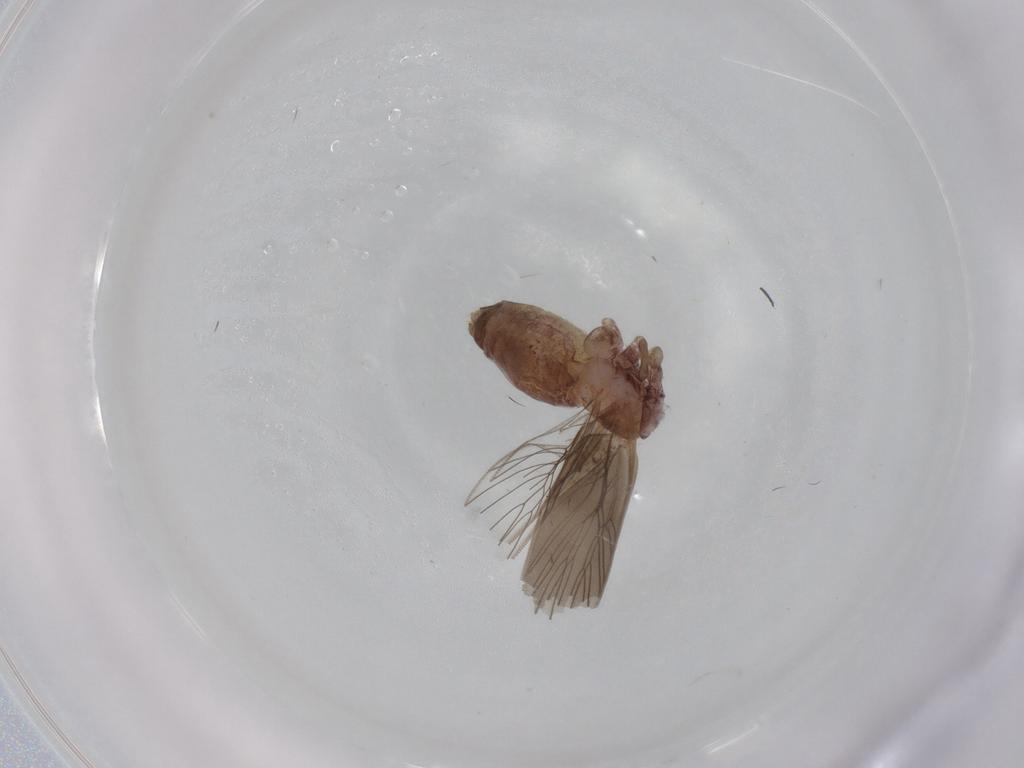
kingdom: Animalia
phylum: Arthropoda
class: Insecta
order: Psocodea
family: Lepidopsocidae
